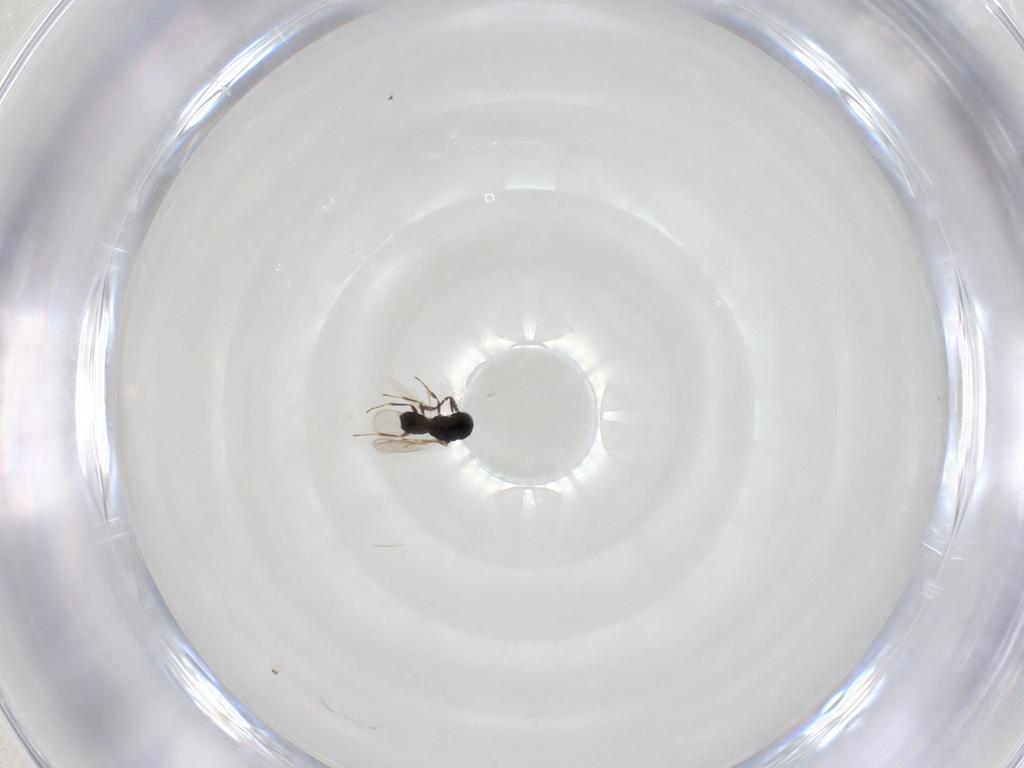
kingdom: Animalia
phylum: Arthropoda
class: Insecta
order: Hymenoptera
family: Scelionidae
